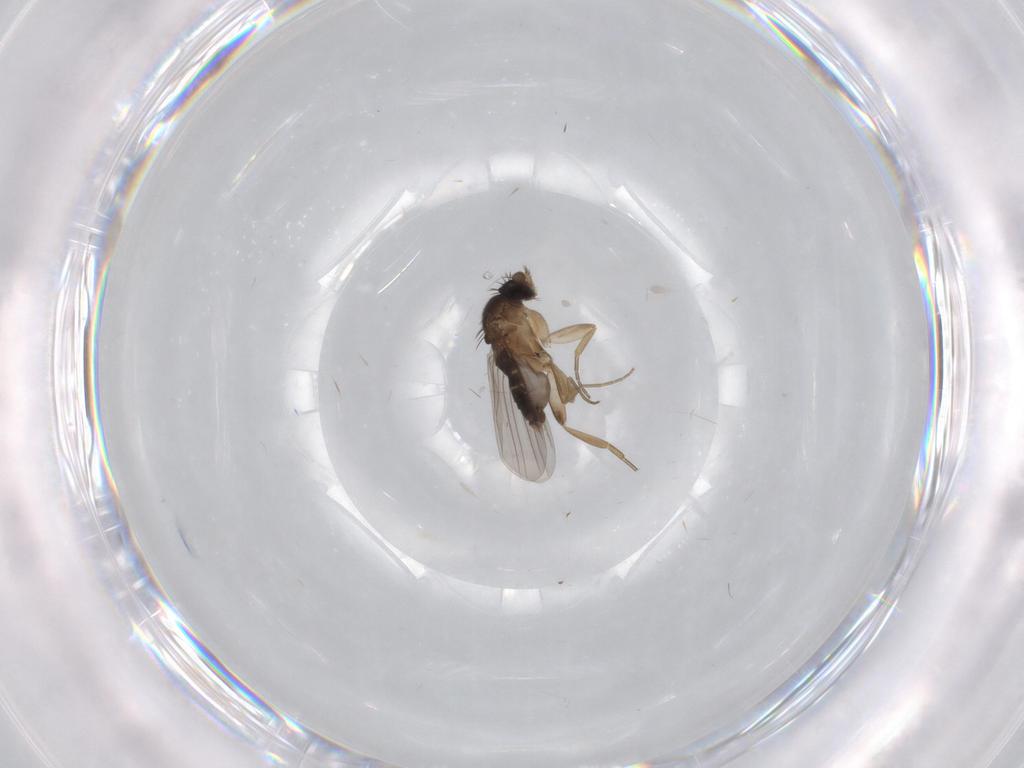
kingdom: Animalia
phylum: Arthropoda
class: Insecta
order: Diptera
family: Phoridae
